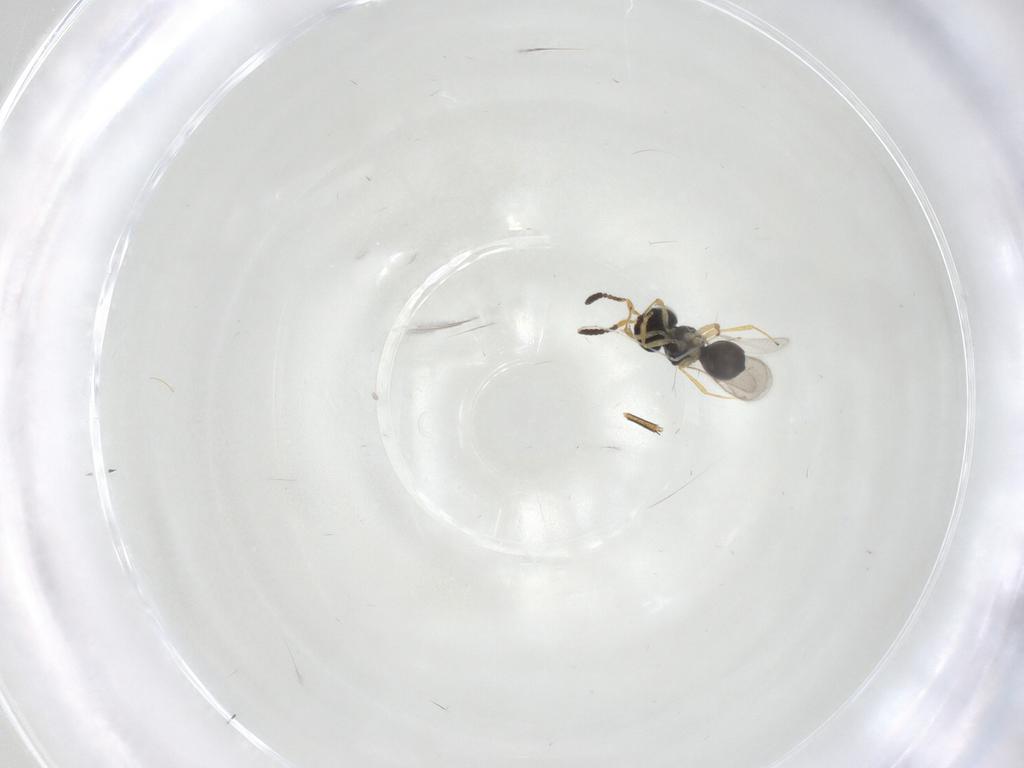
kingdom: Animalia
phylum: Arthropoda
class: Insecta
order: Hymenoptera
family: Scelionidae
